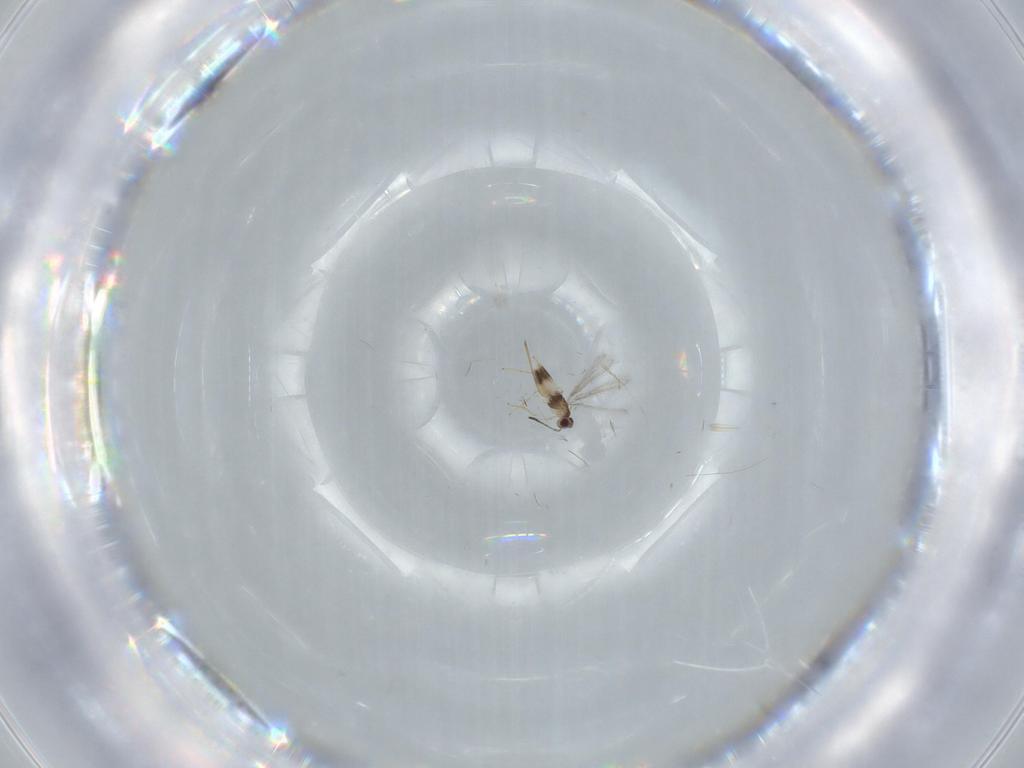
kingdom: Animalia
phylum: Arthropoda
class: Insecta
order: Hymenoptera
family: Mymaridae
